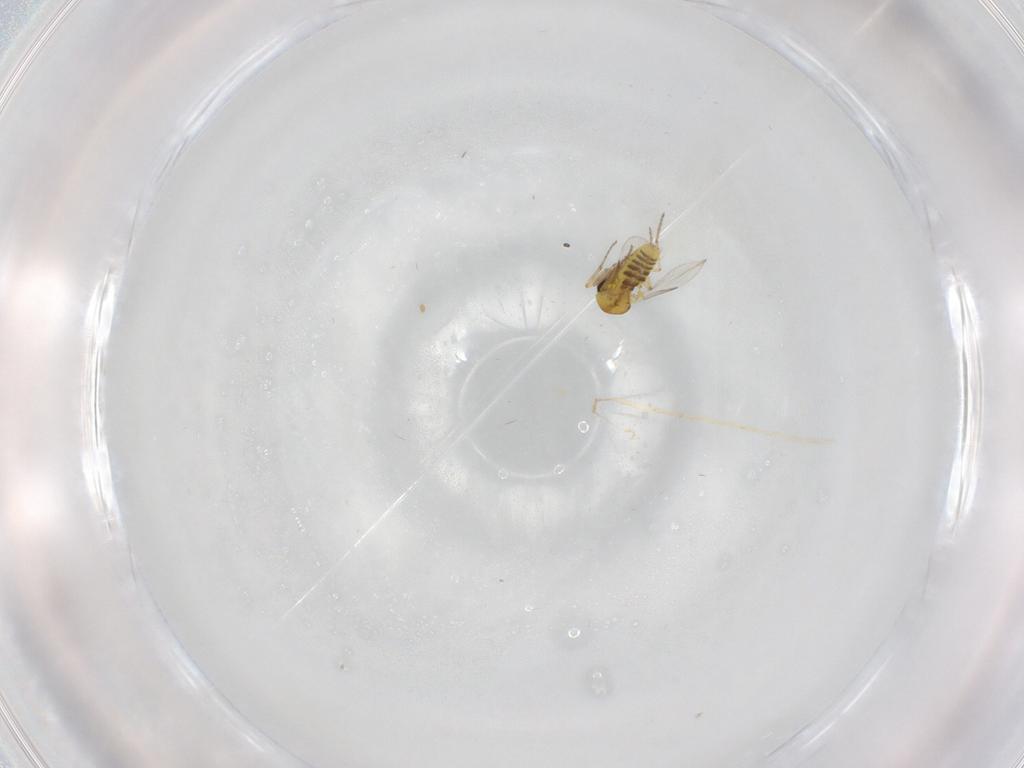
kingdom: Animalia
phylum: Arthropoda
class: Insecta
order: Diptera
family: Ceratopogonidae
